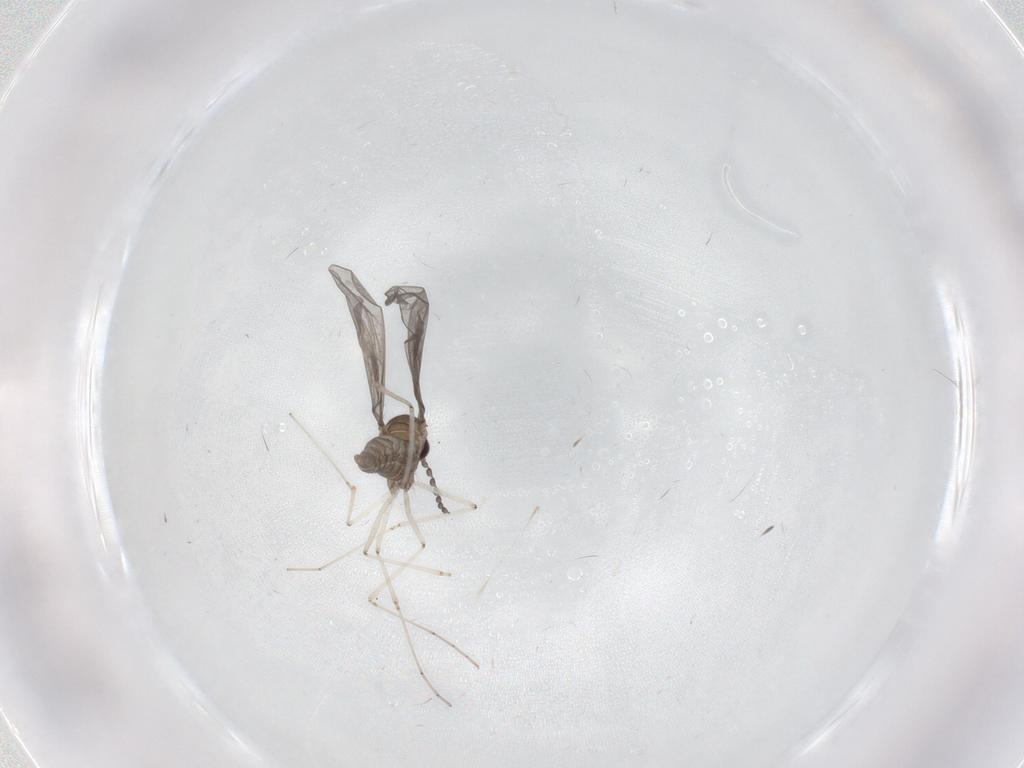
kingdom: Animalia
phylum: Arthropoda
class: Insecta
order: Diptera
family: Cecidomyiidae
